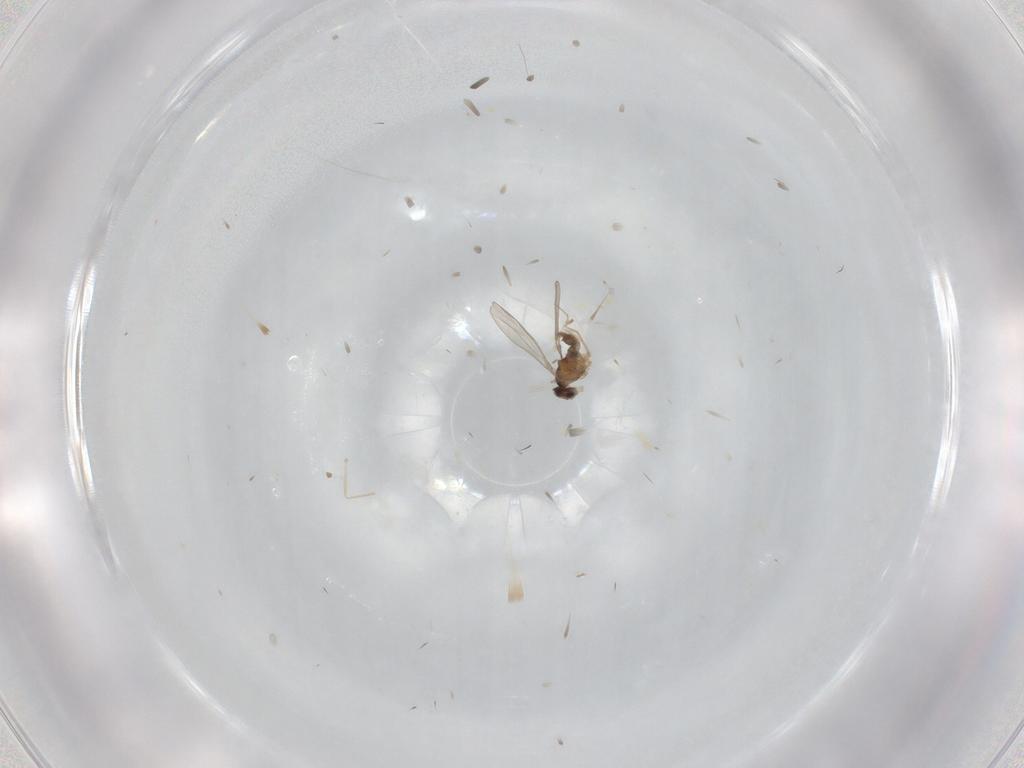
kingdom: Animalia
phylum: Arthropoda
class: Insecta
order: Diptera
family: Cecidomyiidae
